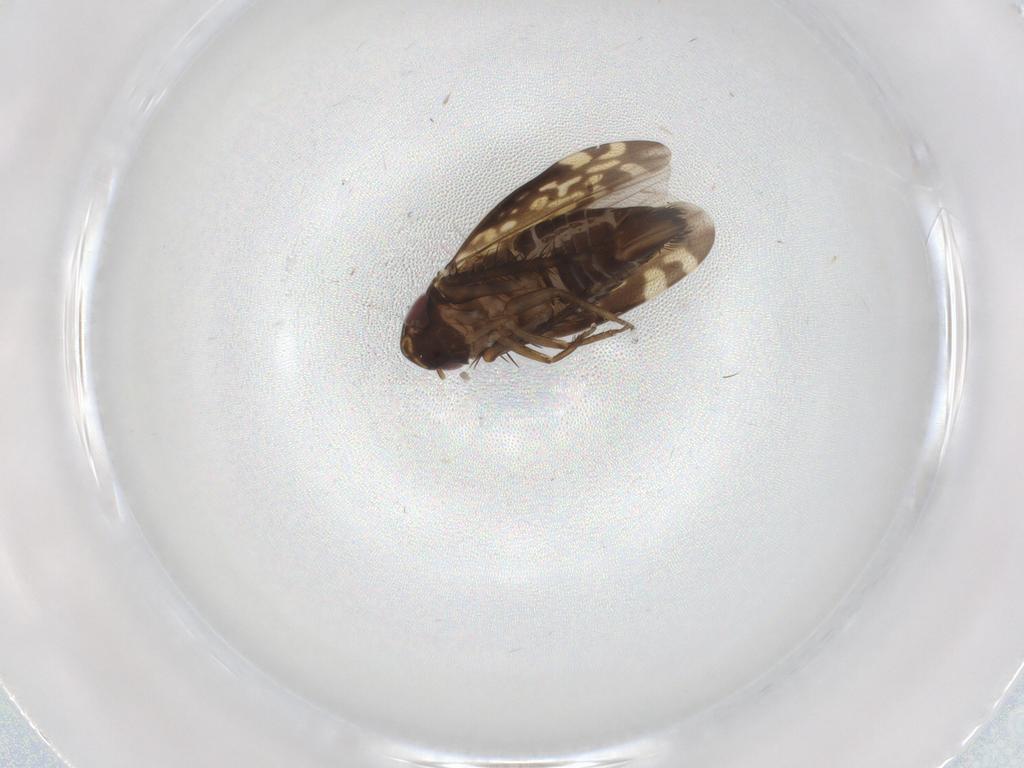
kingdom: Animalia
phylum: Arthropoda
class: Insecta
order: Hemiptera
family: Cicadellidae
